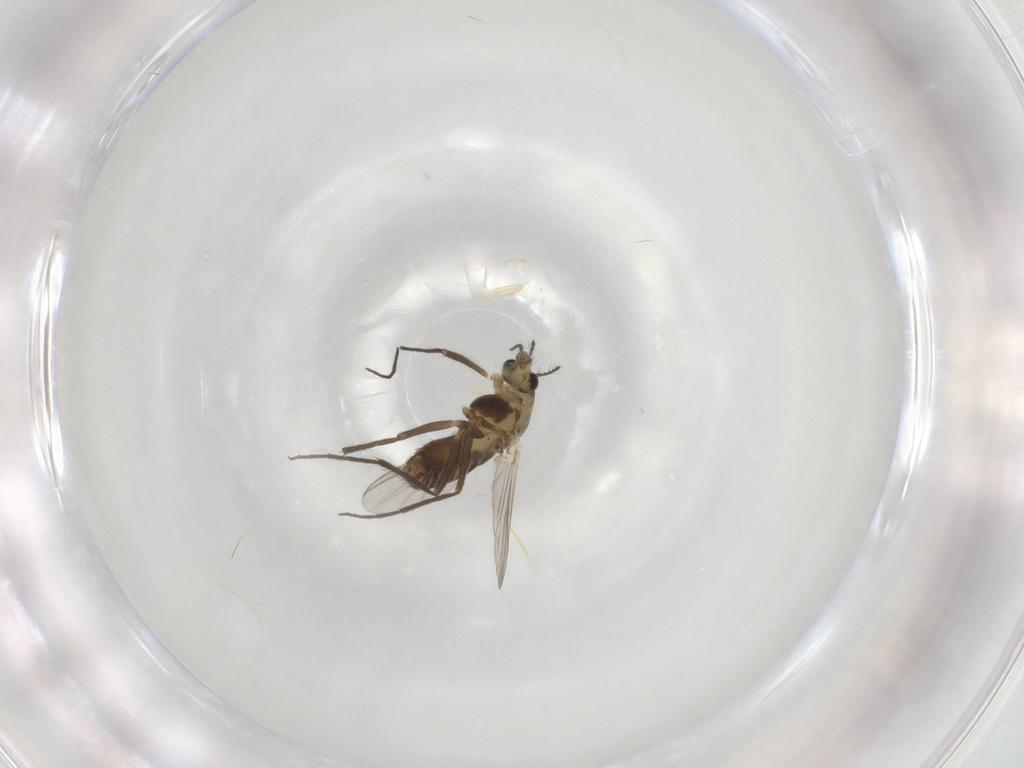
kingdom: Animalia
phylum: Arthropoda
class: Insecta
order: Diptera
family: Chironomidae
